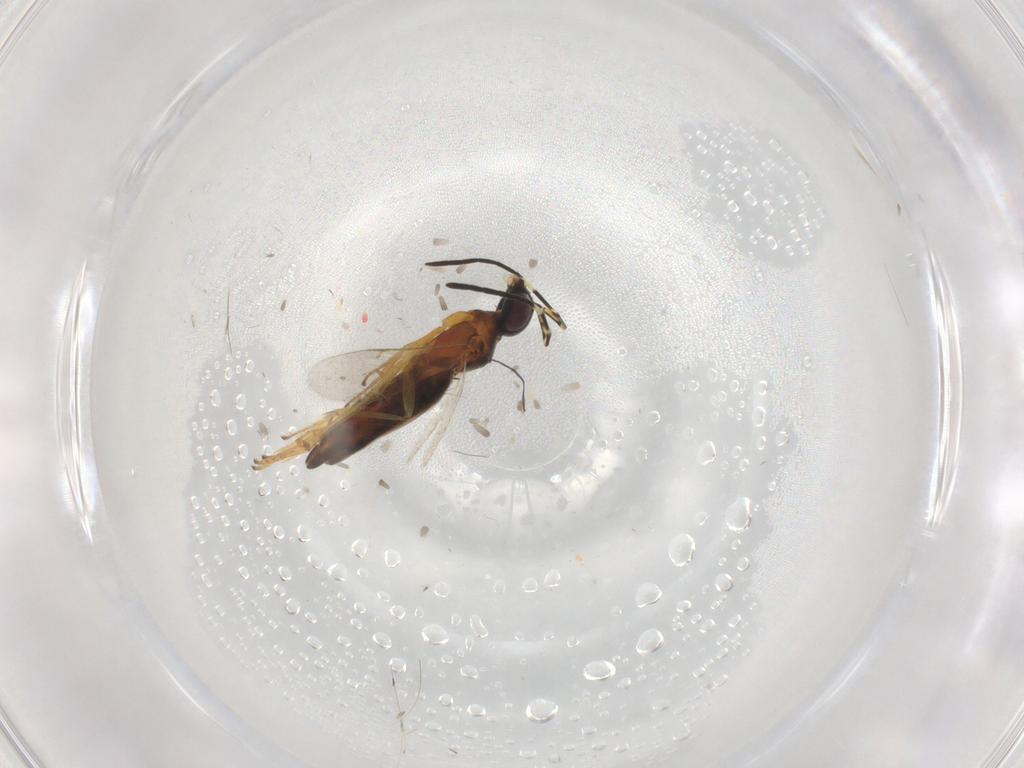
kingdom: Animalia
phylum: Arthropoda
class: Insecta
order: Hymenoptera
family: Encyrtidae
